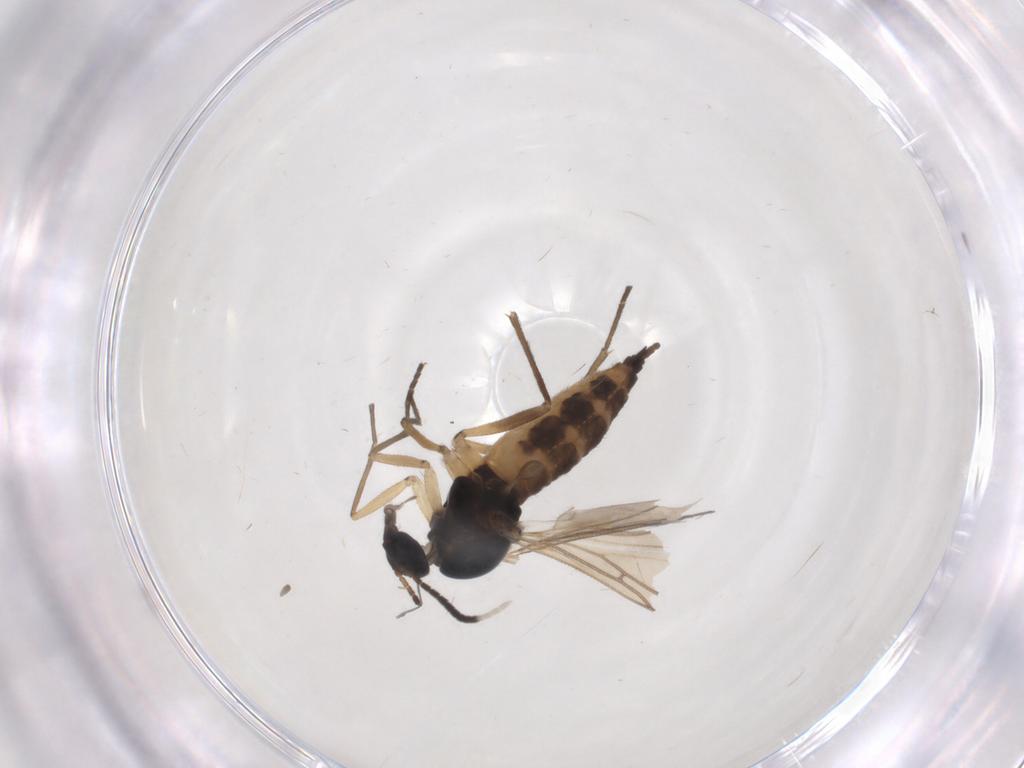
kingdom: Animalia
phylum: Arthropoda
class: Insecta
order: Diptera
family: Sciaridae
